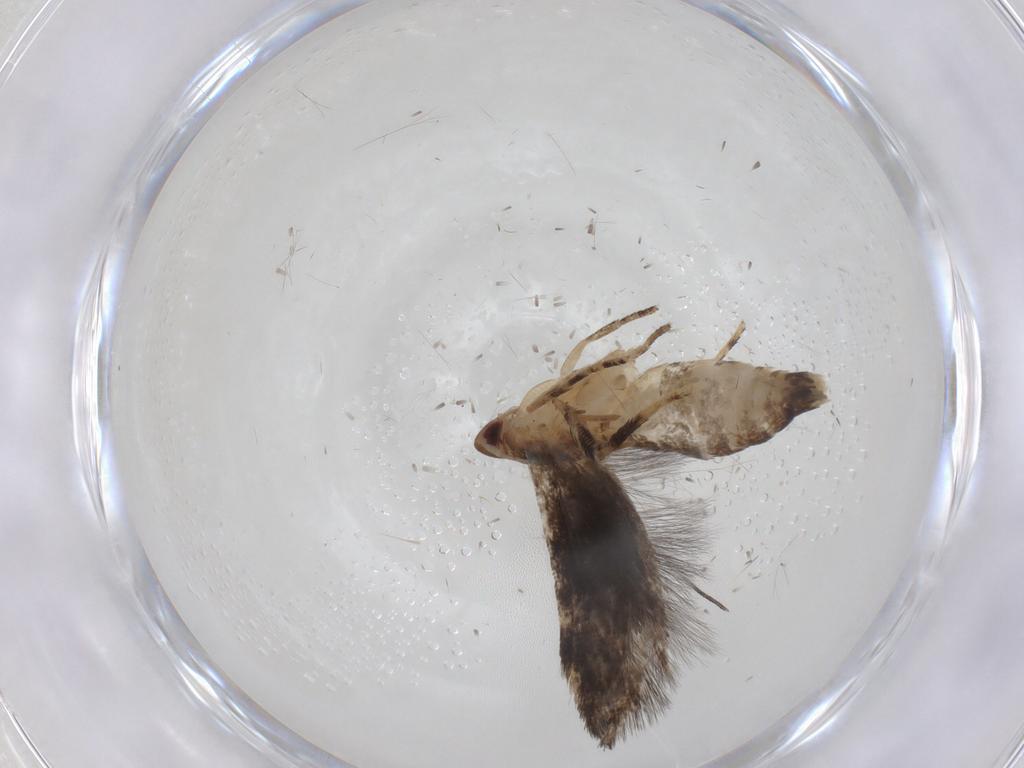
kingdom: Animalia
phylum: Arthropoda
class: Insecta
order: Lepidoptera
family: Momphidae
